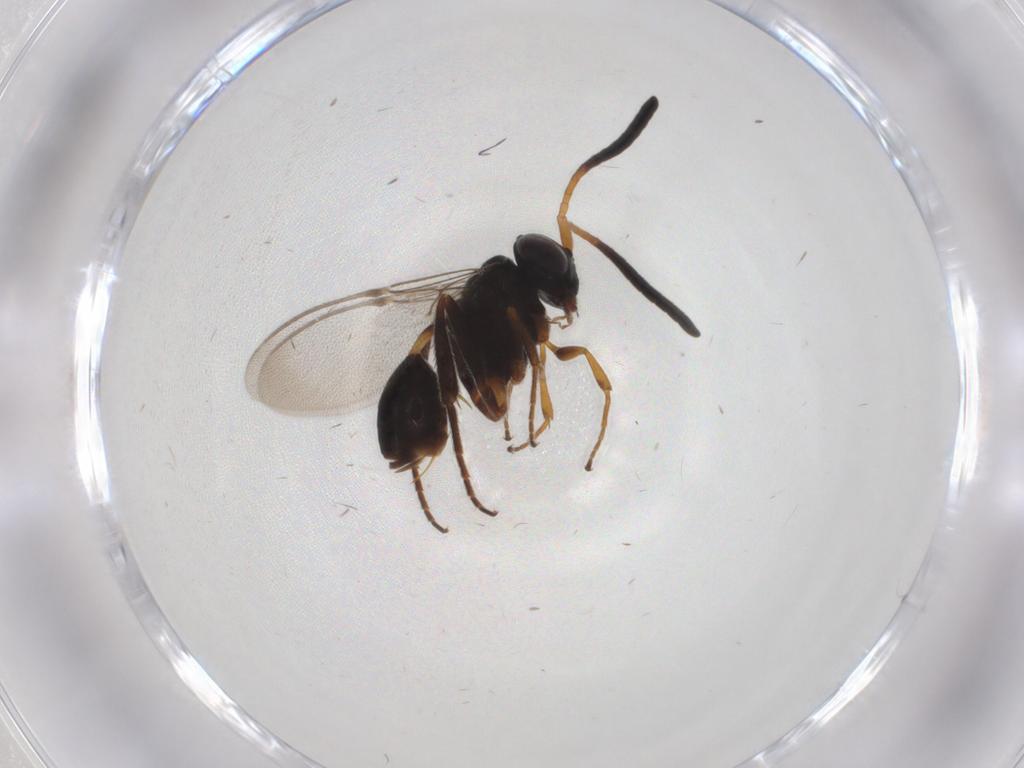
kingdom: Animalia
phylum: Arthropoda
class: Insecta
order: Hymenoptera
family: Evaniidae
